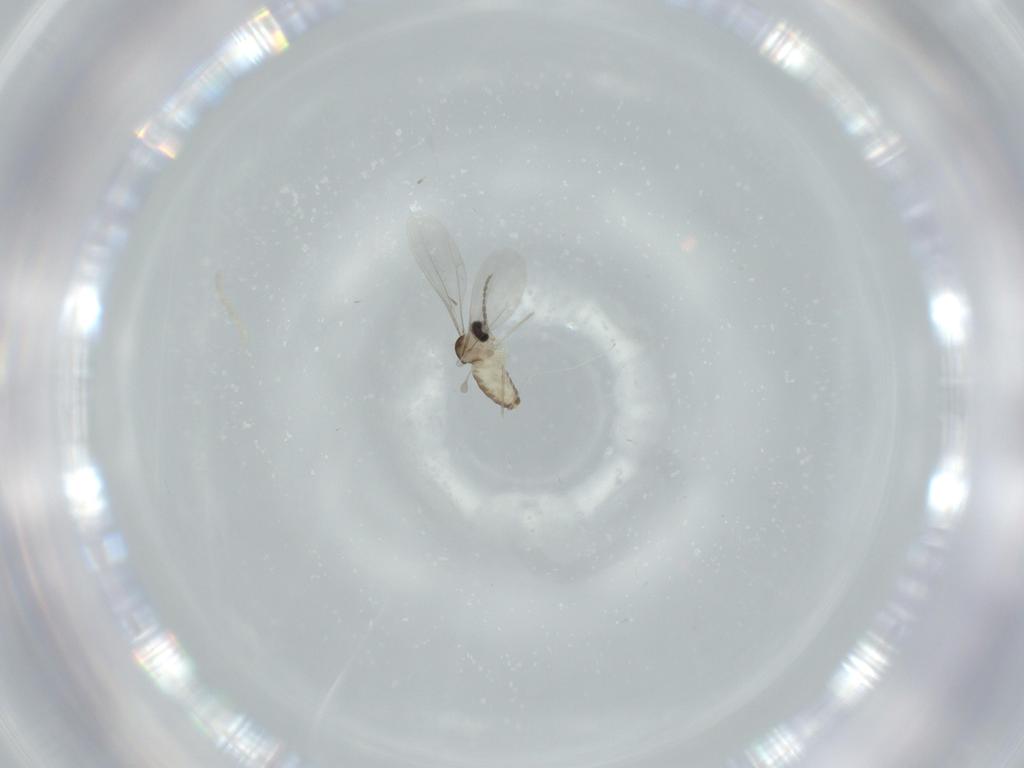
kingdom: Animalia
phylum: Arthropoda
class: Insecta
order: Diptera
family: Cecidomyiidae
